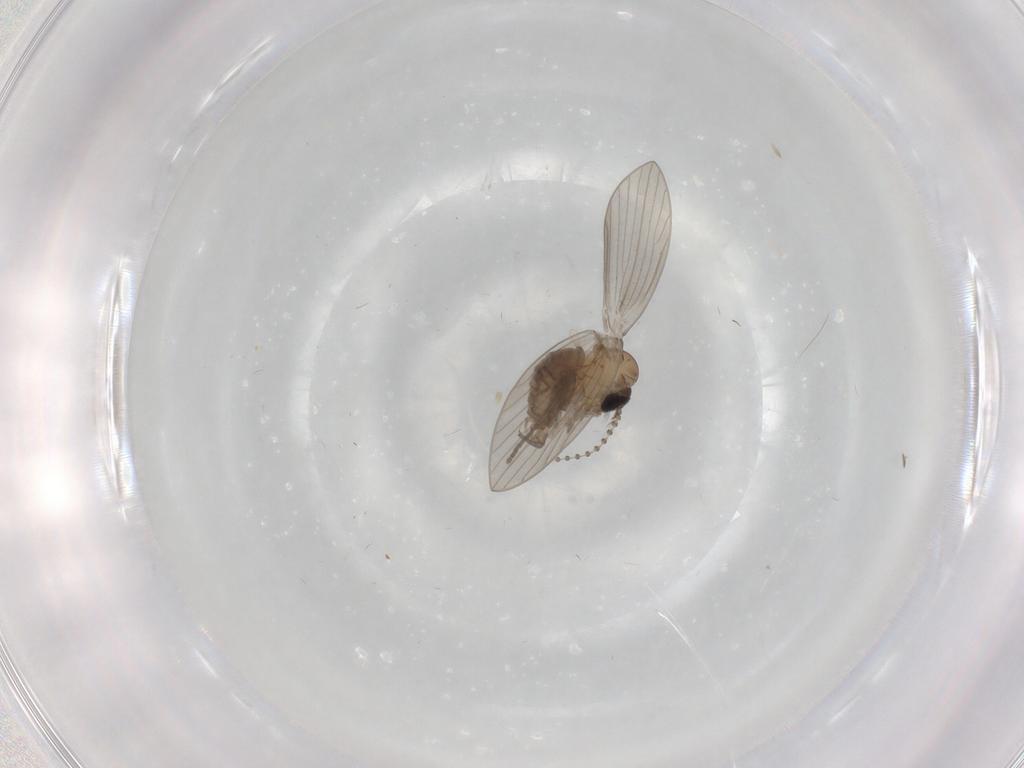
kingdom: Animalia
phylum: Arthropoda
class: Insecta
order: Diptera
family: Psychodidae
